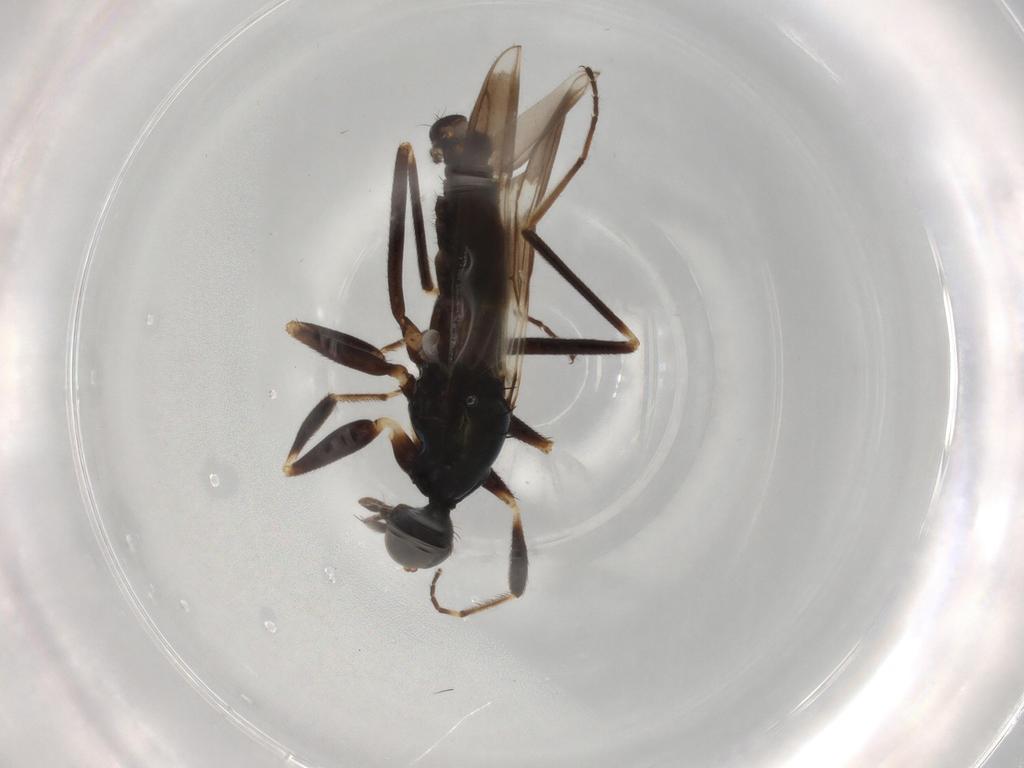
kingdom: Animalia
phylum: Arthropoda
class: Insecta
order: Diptera
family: Hybotidae
